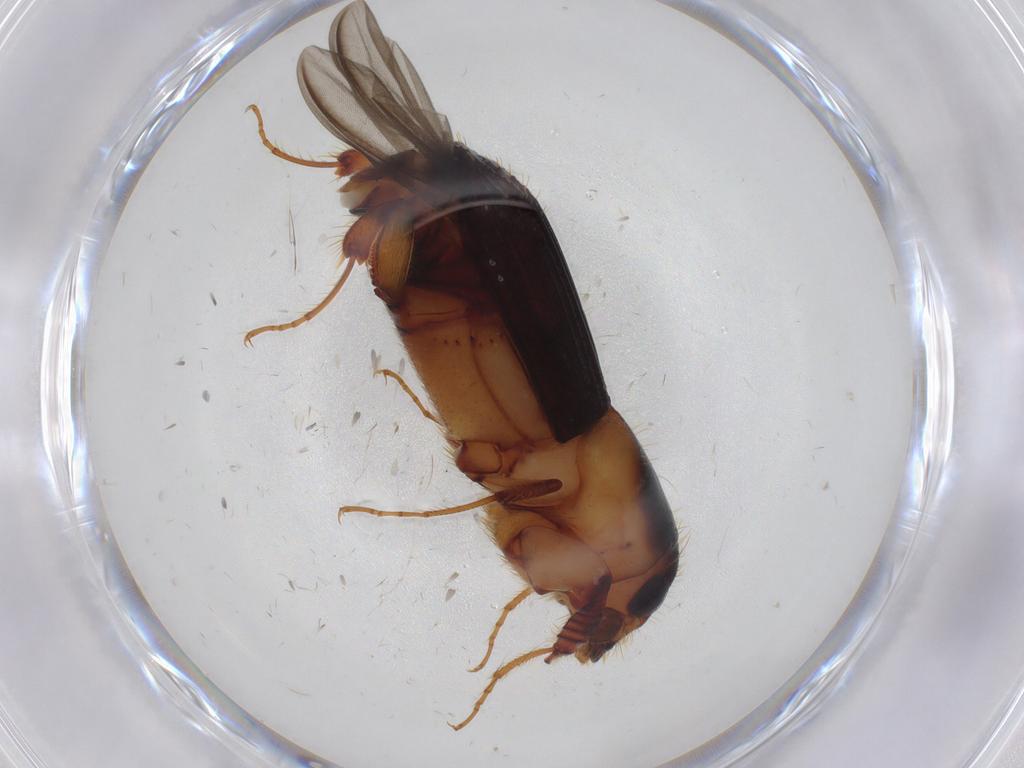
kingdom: Animalia
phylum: Arthropoda
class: Insecta
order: Coleoptera
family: Curculionidae
